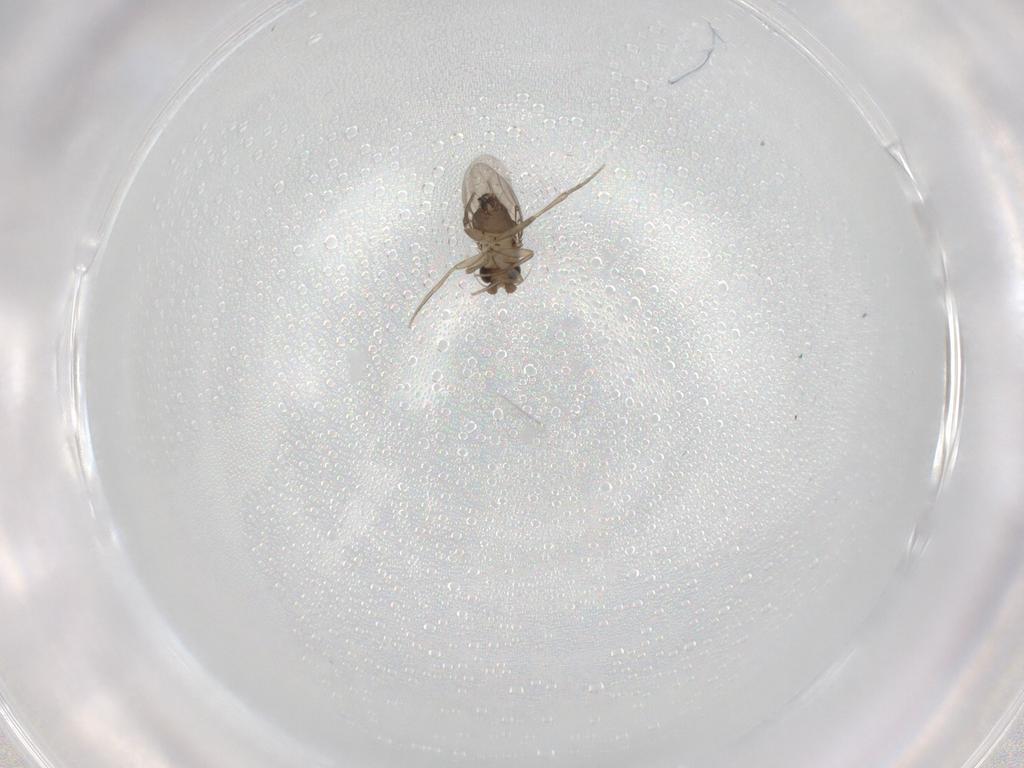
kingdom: Animalia
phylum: Arthropoda
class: Insecta
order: Diptera
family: Phoridae
